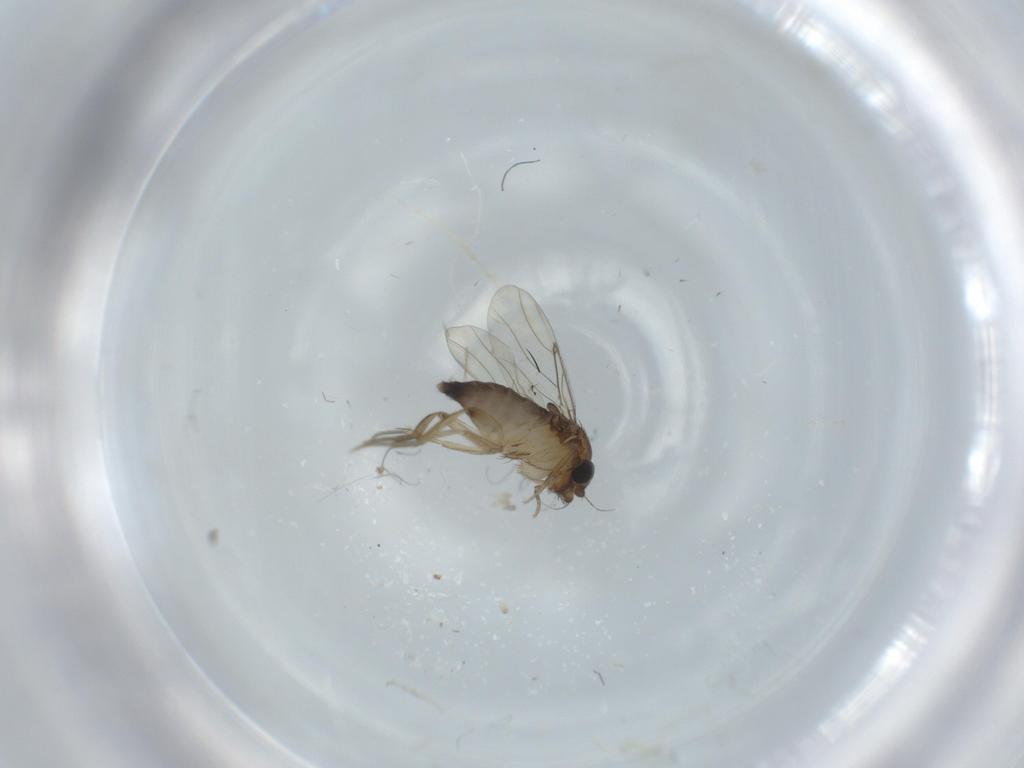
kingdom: Animalia
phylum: Arthropoda
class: Insecta
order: Diptera
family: Phoridae
